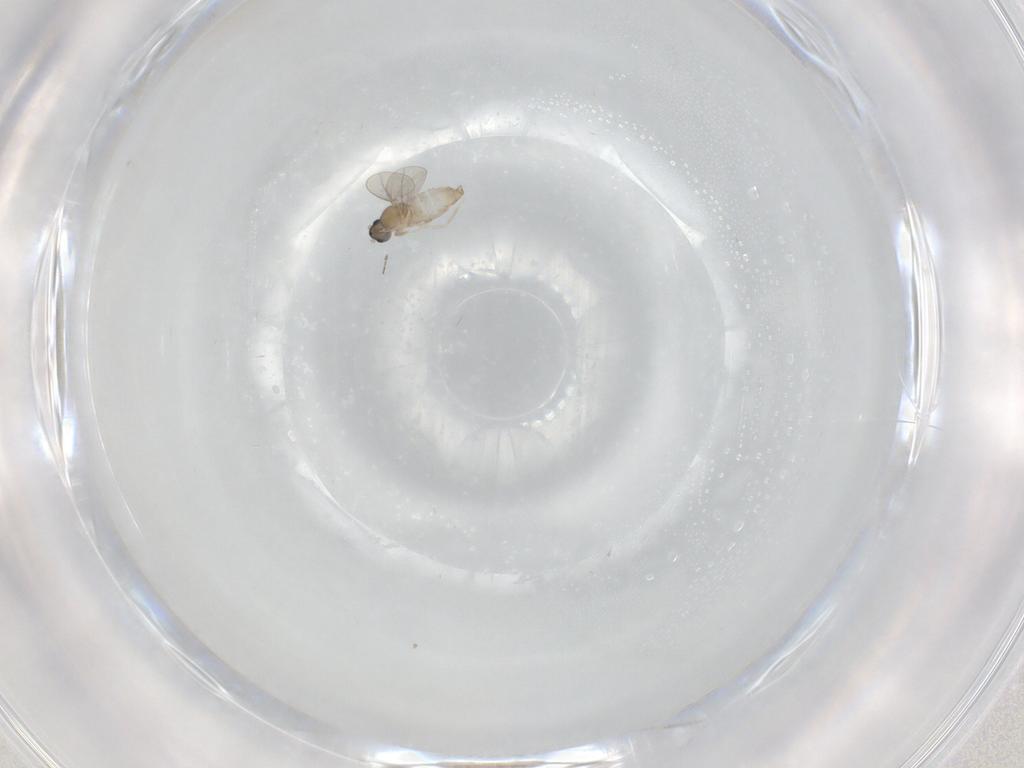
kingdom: Animalia
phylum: Arthropoda
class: Insecta
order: Diptera
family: Cecidomyiidae
